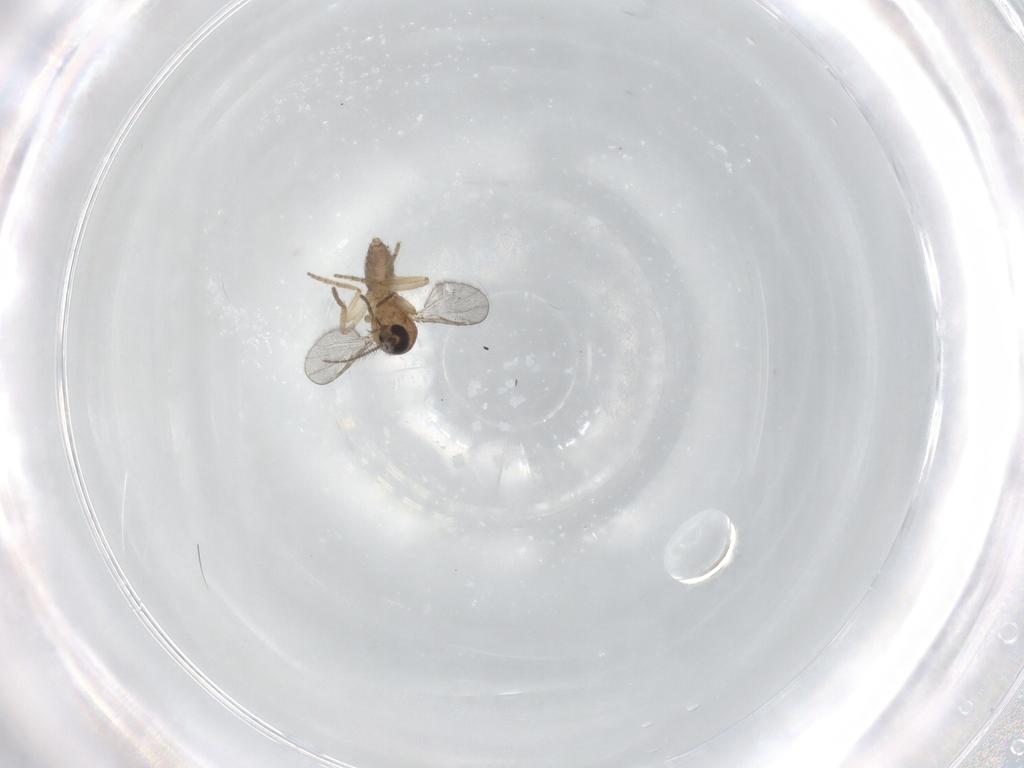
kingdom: Animalia
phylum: Arthropoda
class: Insecta
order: Diptera
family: Ceratopogonidae
